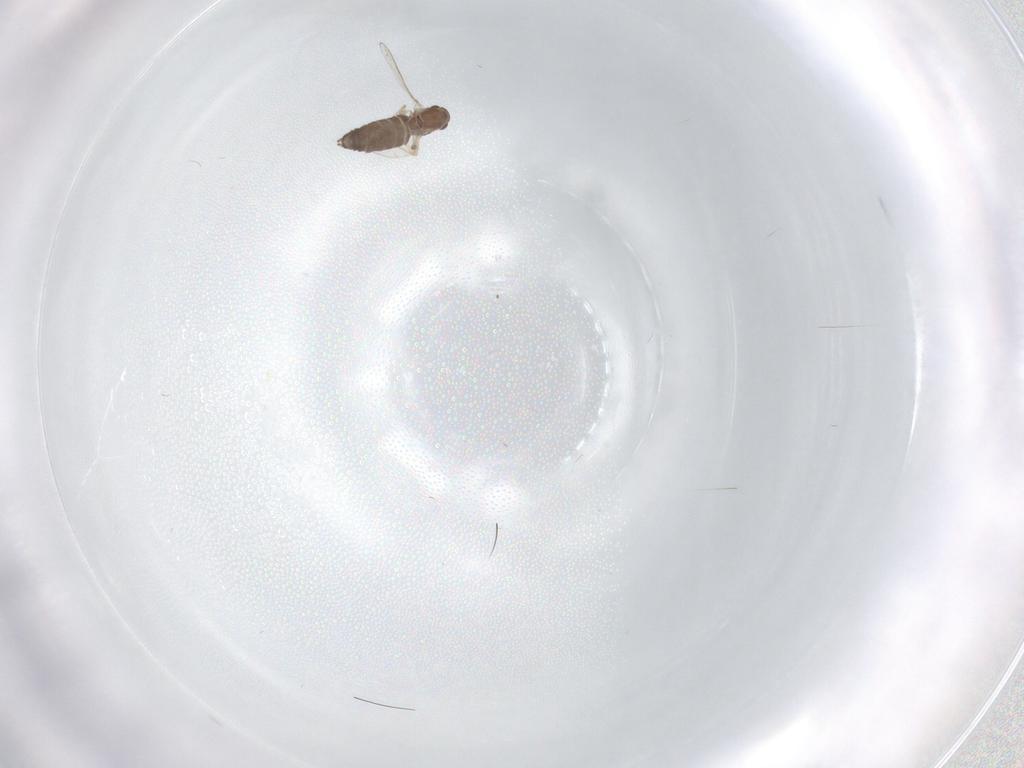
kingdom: Animalia
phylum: Arthropoda
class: Insecta
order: Diptera
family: Chironomidae
